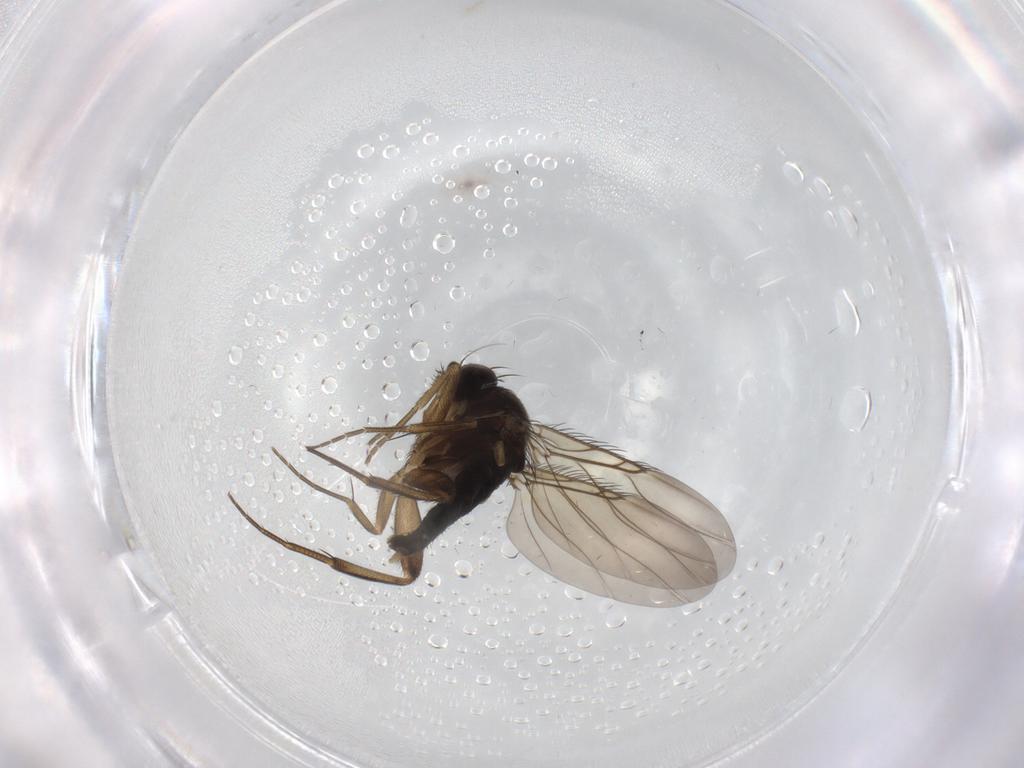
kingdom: Animalia
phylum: Arthropoda
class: Insecta
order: Diptera
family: Phoridae
